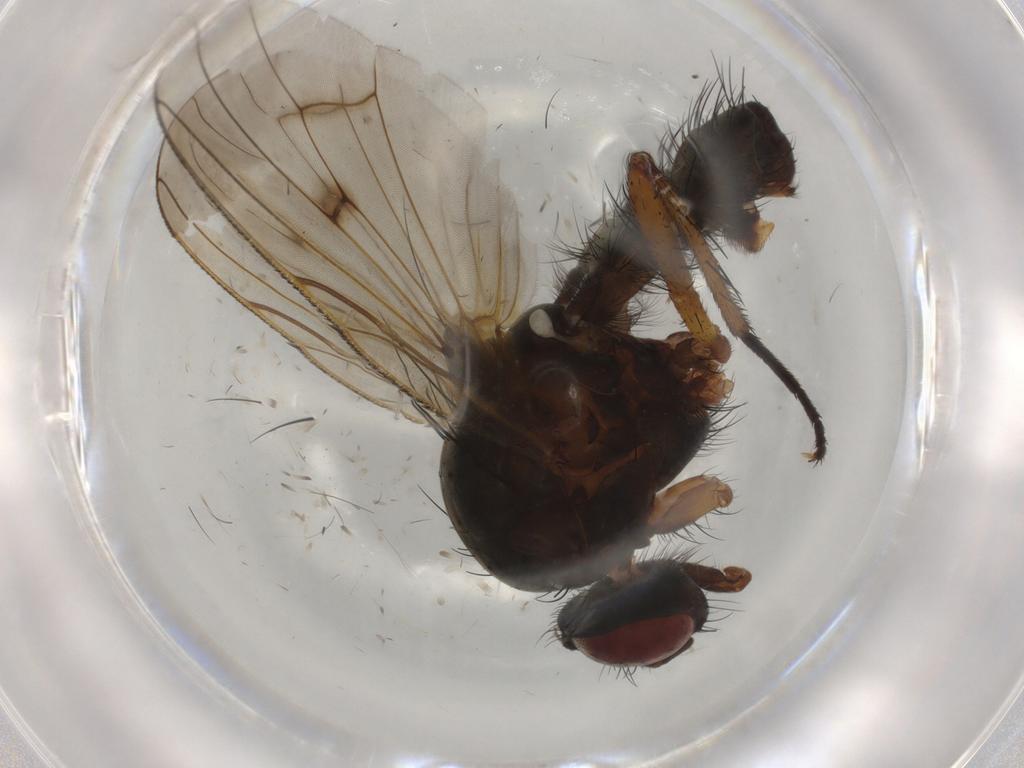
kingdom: Animalia
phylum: Arthropoda
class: Insecta
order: Diptera
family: Anthomyiidae
